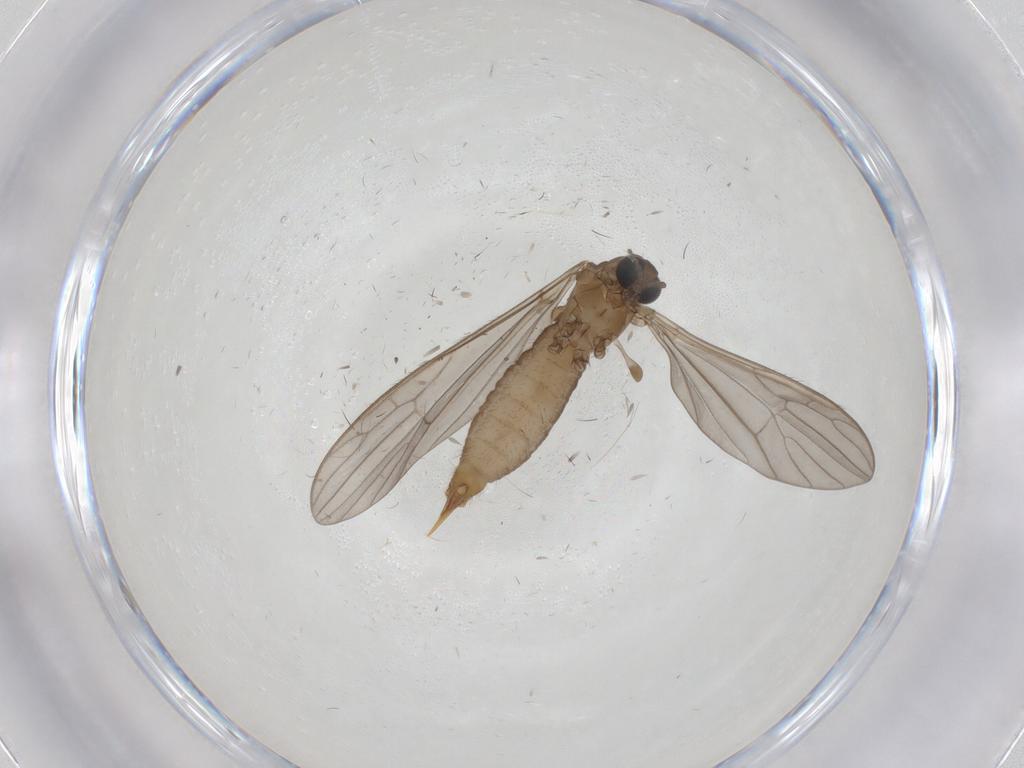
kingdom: Animalia
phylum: Arthropoda
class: Insecta
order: Diptera
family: Limoniidae
